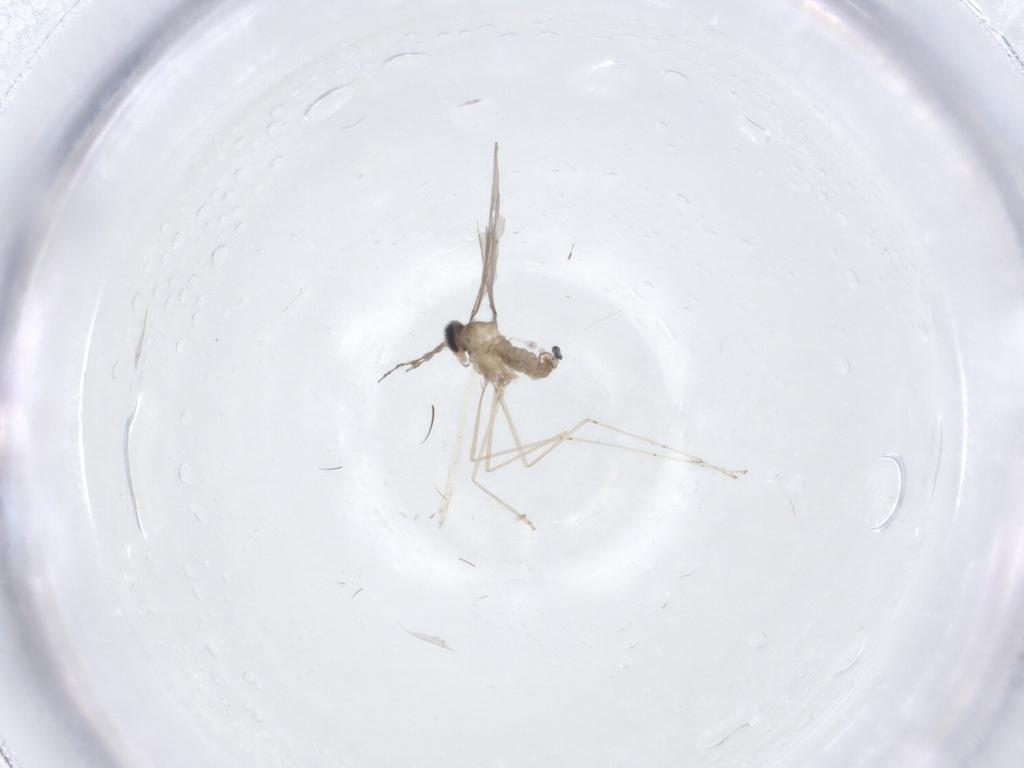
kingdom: Animalia
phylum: Arthropoda
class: Insecta
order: Diptera
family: Cecidomyiidae
